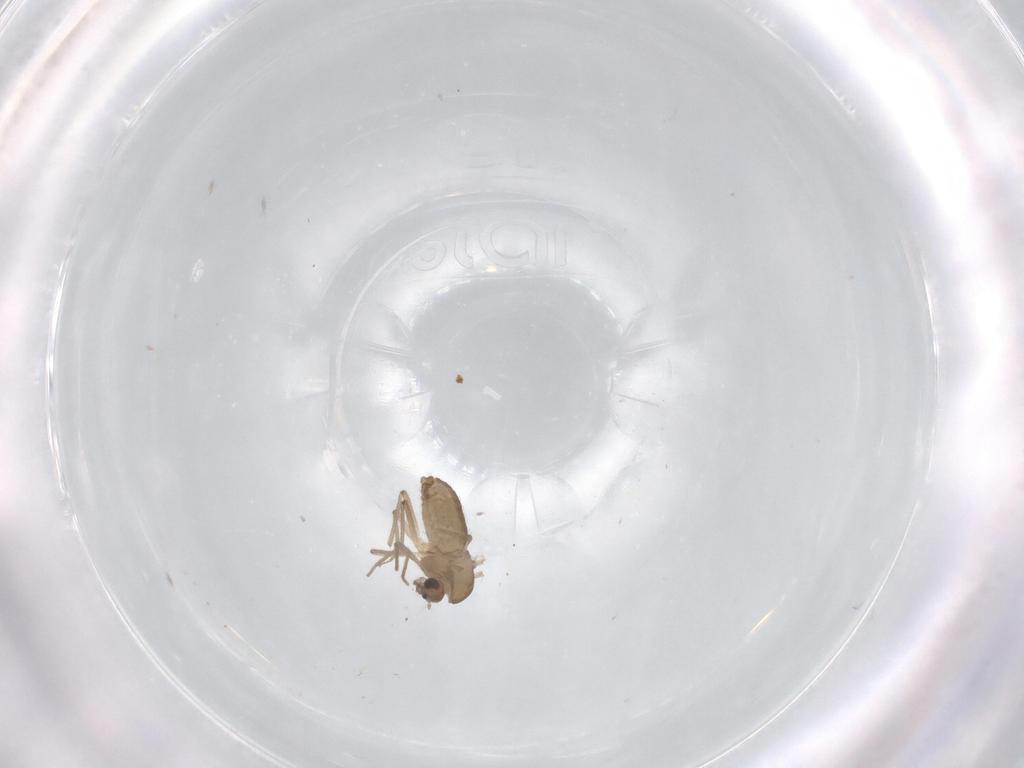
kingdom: Animalia
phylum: Arthropoda
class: Insecta
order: Diptera
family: Chironomidae
